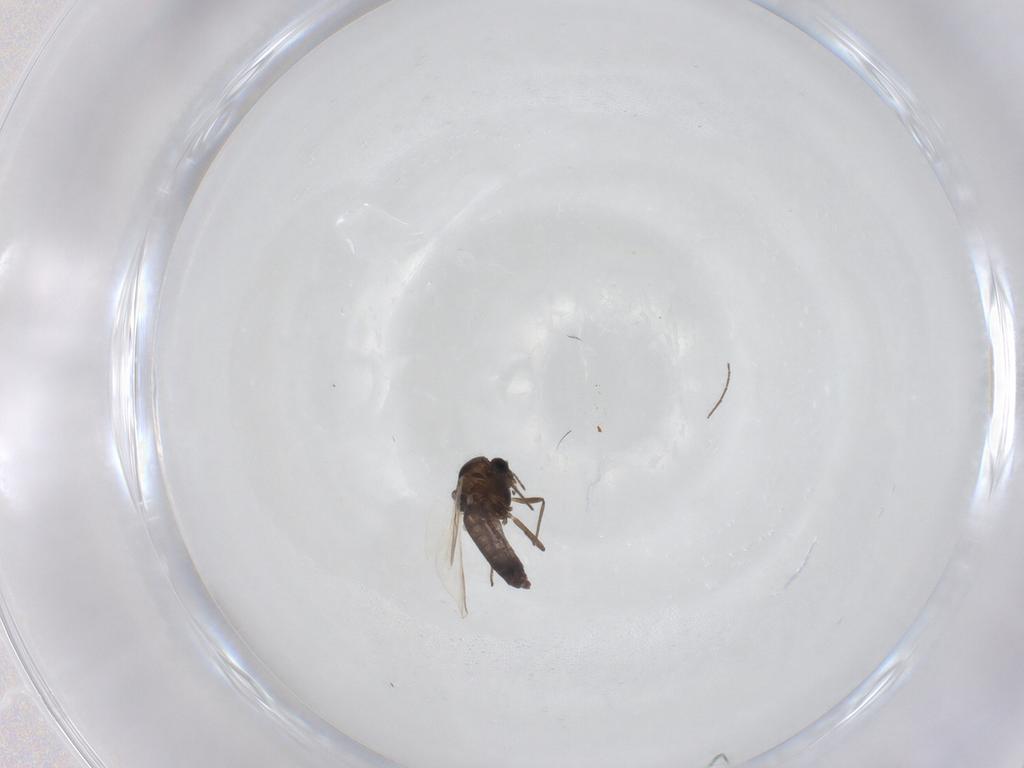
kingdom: Animalia
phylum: Arthropoda
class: Insecta
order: Diptera
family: Chironomidae
